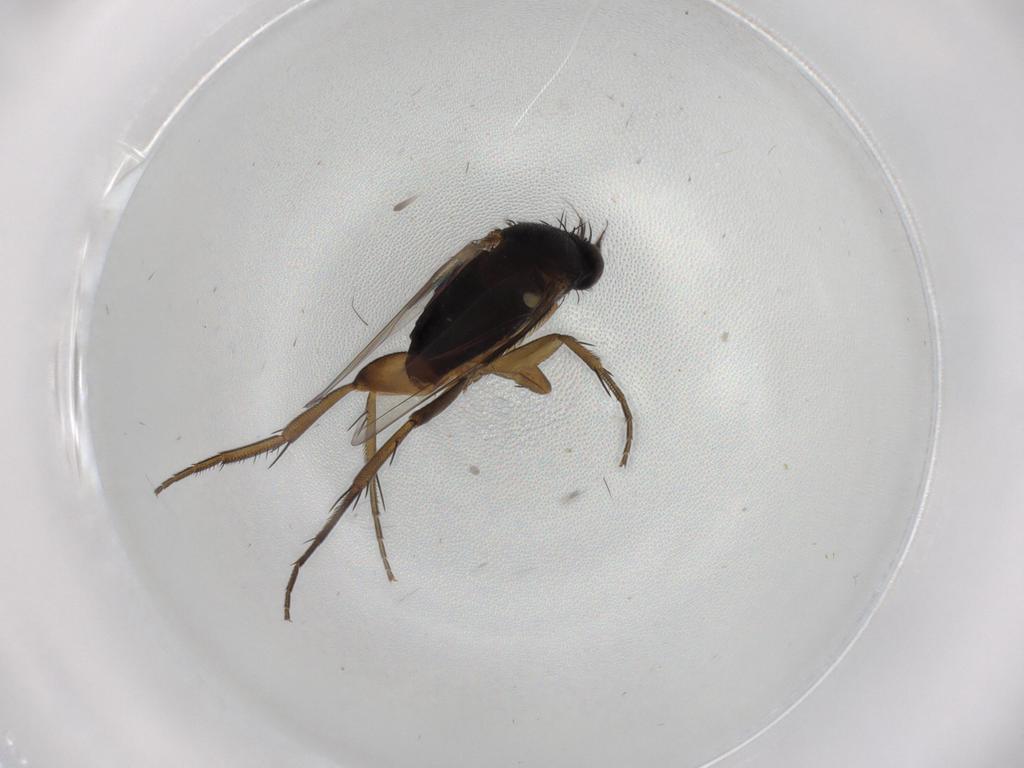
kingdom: Animalia
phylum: Arthropoda
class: Insecta
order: Diptera
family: Phoridae
